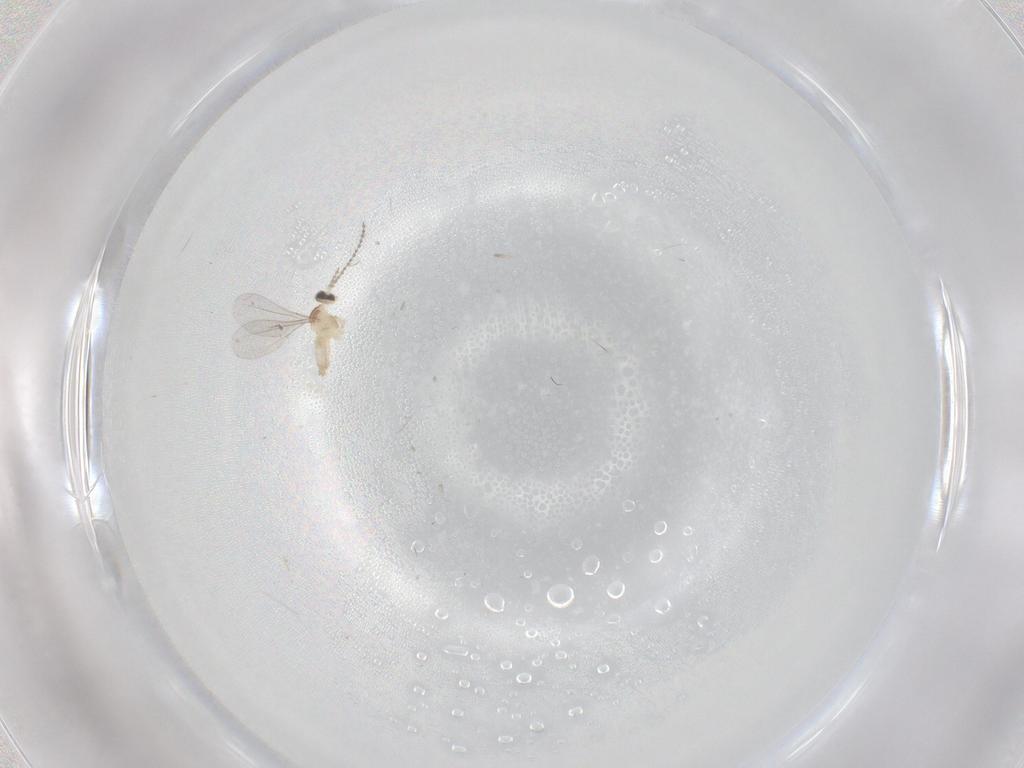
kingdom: Animalia
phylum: Arthropoda
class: Insecta
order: Diptera
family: Cecidomyiidae
